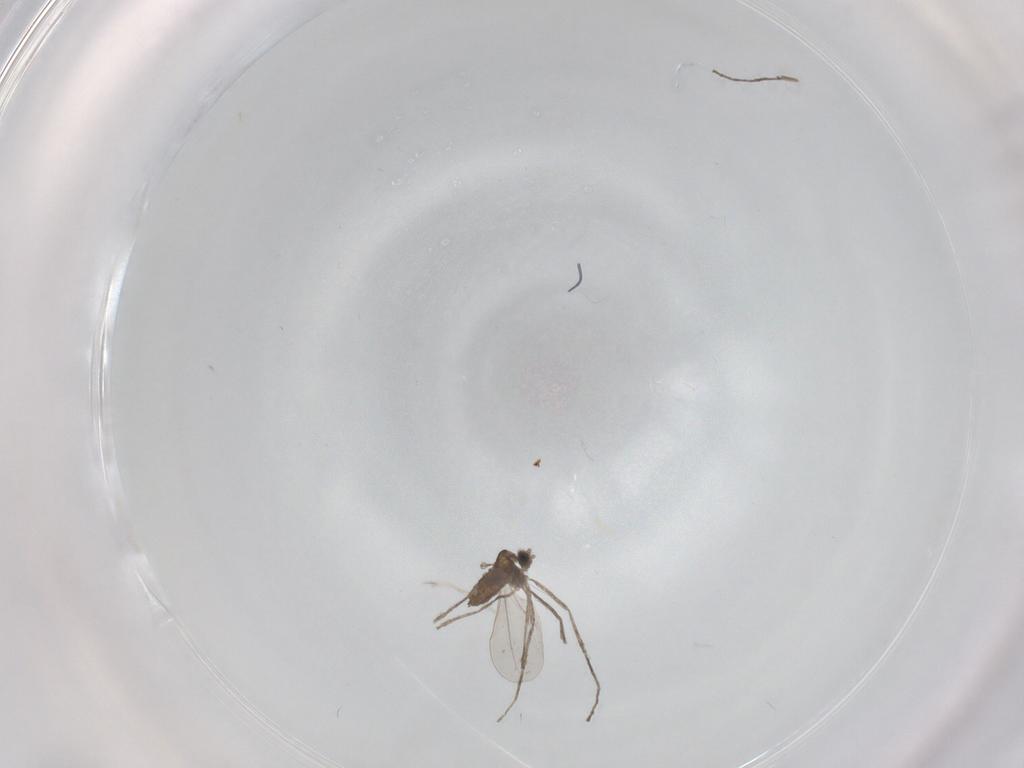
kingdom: Animalia
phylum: Arthropoda
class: Insecta
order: Diptera
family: Cecidomyiidae
